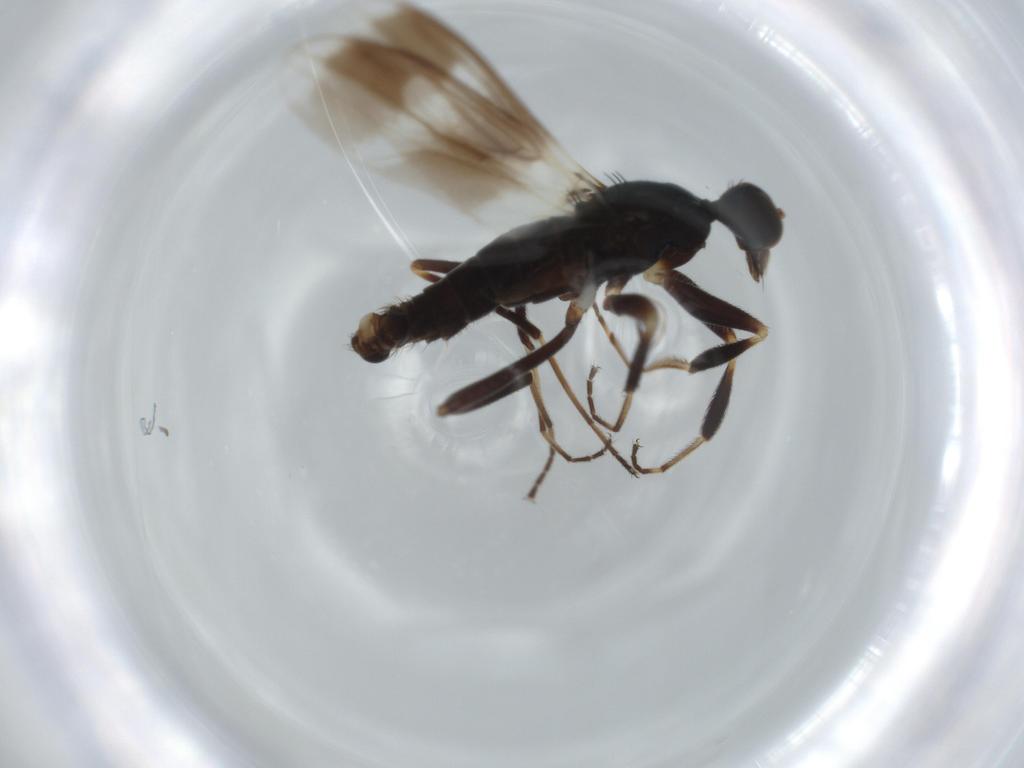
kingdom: Animalia
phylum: Arthropoda
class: Insecta
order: Diptera
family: Psilidae
